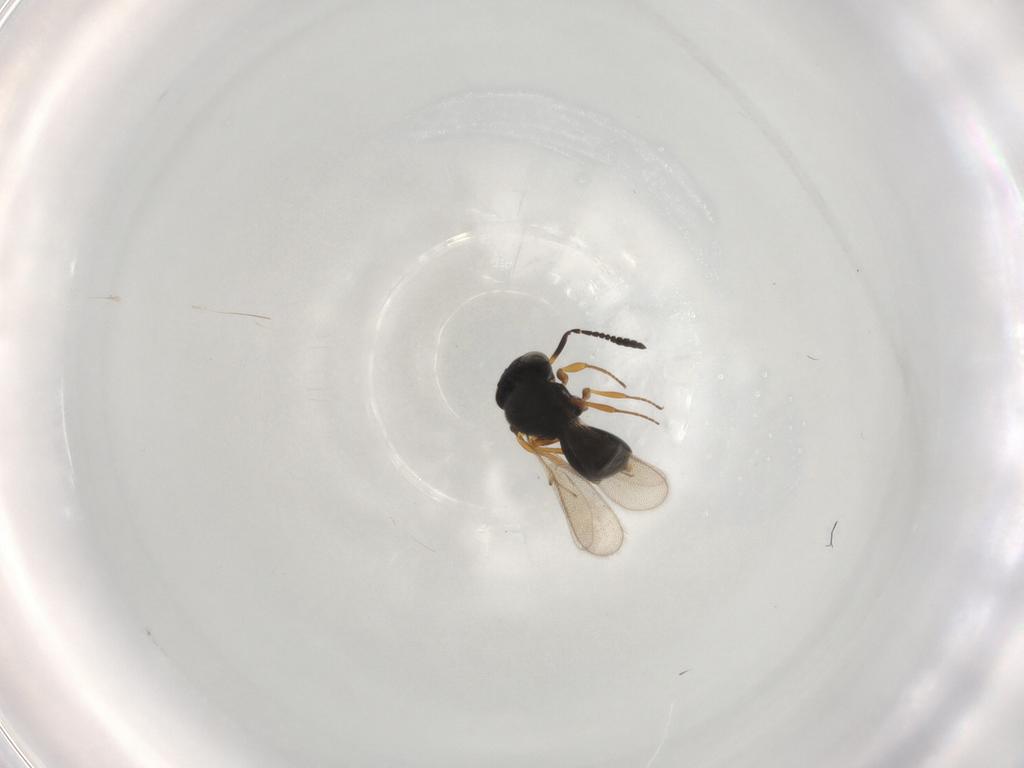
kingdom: Animalia
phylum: Arthropoda
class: Insecta
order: Hymenoptera
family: Scelionidae
